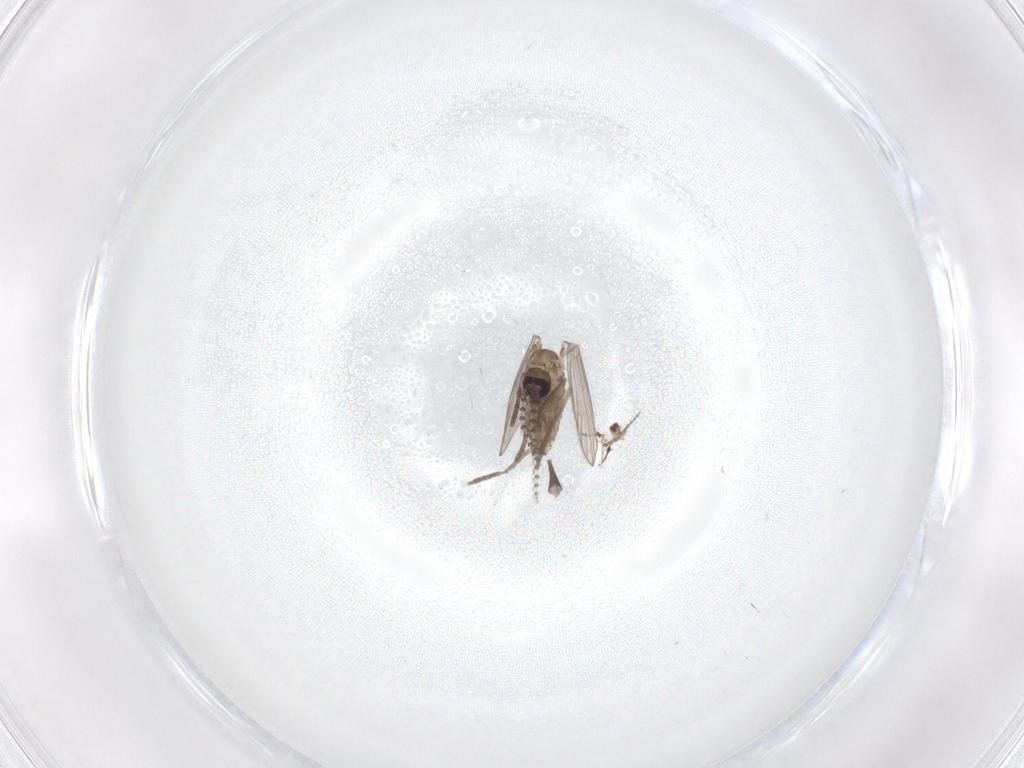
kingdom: Animalia
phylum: Arthropoda
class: Insecta
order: Diptera
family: Psychodidae
